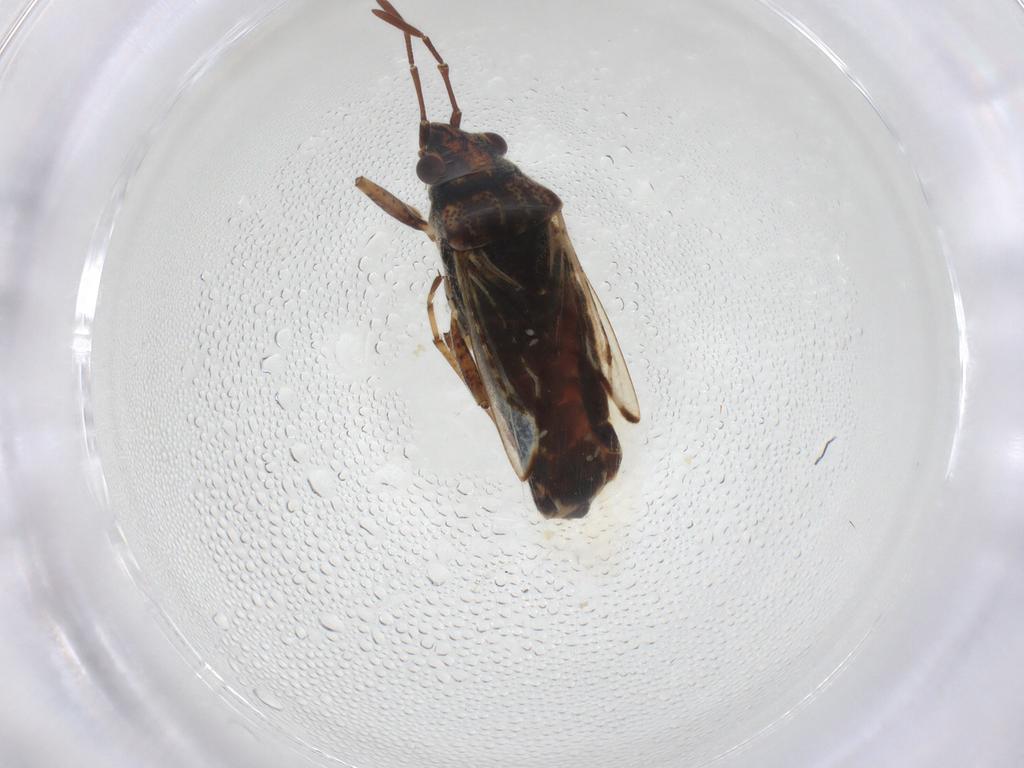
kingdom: Animalia
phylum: Arthropoda
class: Insecta
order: Hemiptera
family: Lygaeidae
